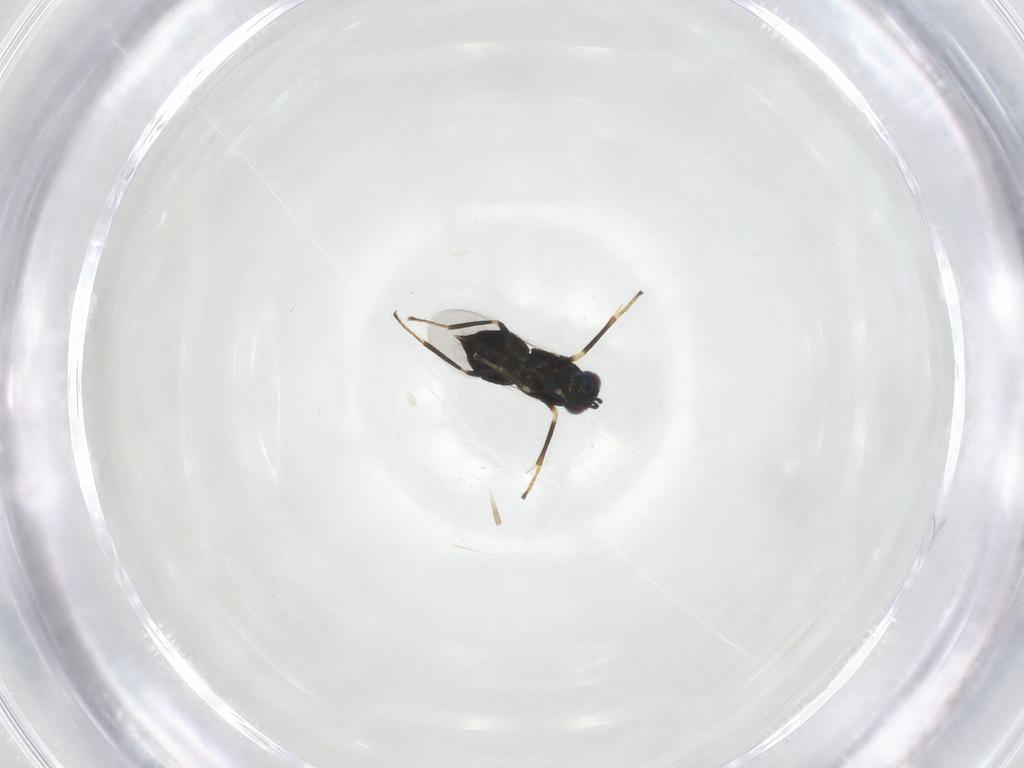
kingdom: Animalia
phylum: Arthropoda
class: Insecta
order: Hymenoptera
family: Encyrtidae
